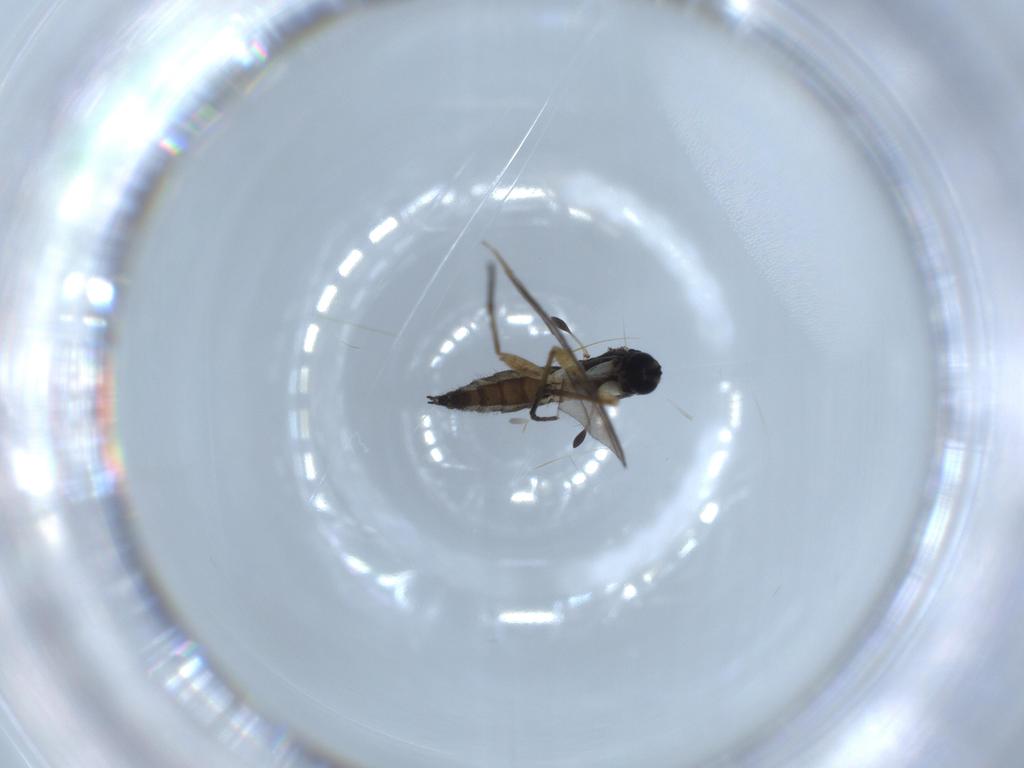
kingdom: Animalia
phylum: Arthropoda
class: Insecta
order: Diptera
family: Sciaridae
